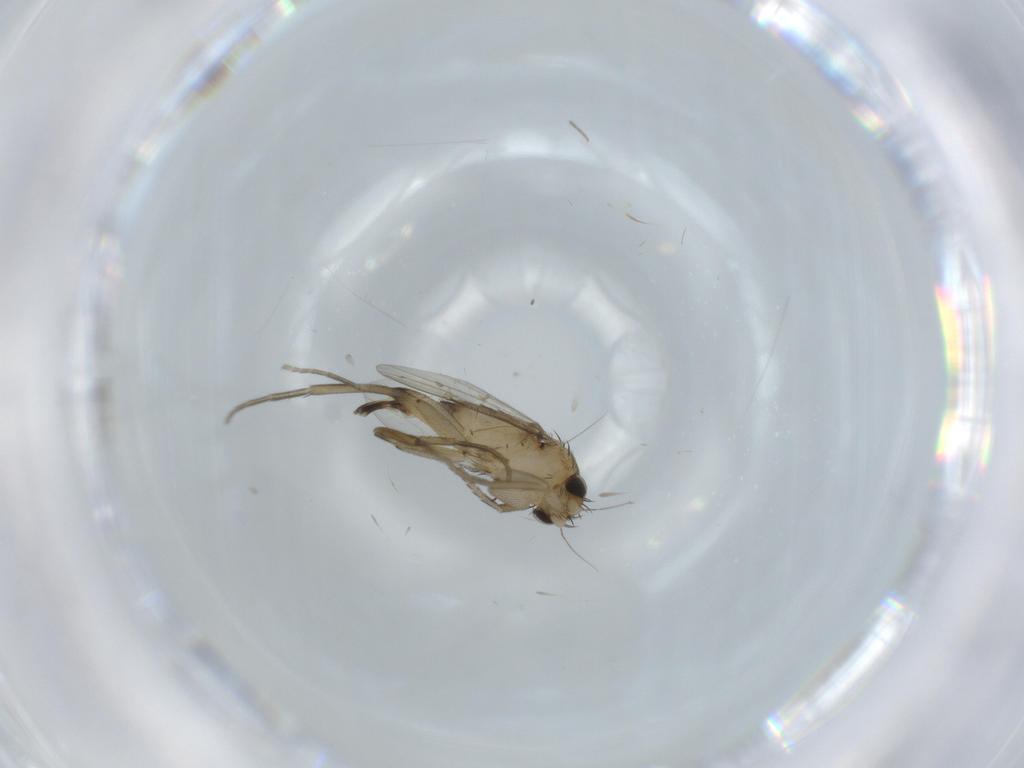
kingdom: Animalia
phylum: Arthropoda
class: Insecta
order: Diptera
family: Phoridae
